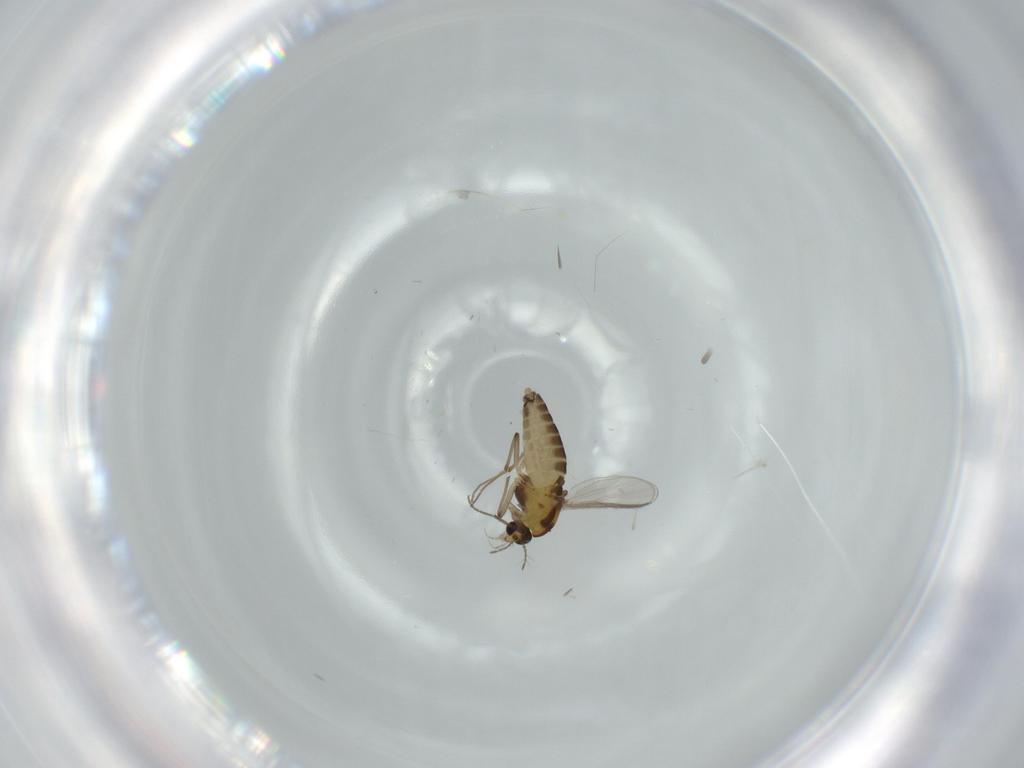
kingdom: Animalia
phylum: Arthropoda
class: Insecta
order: Diptera
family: Chironomidae
